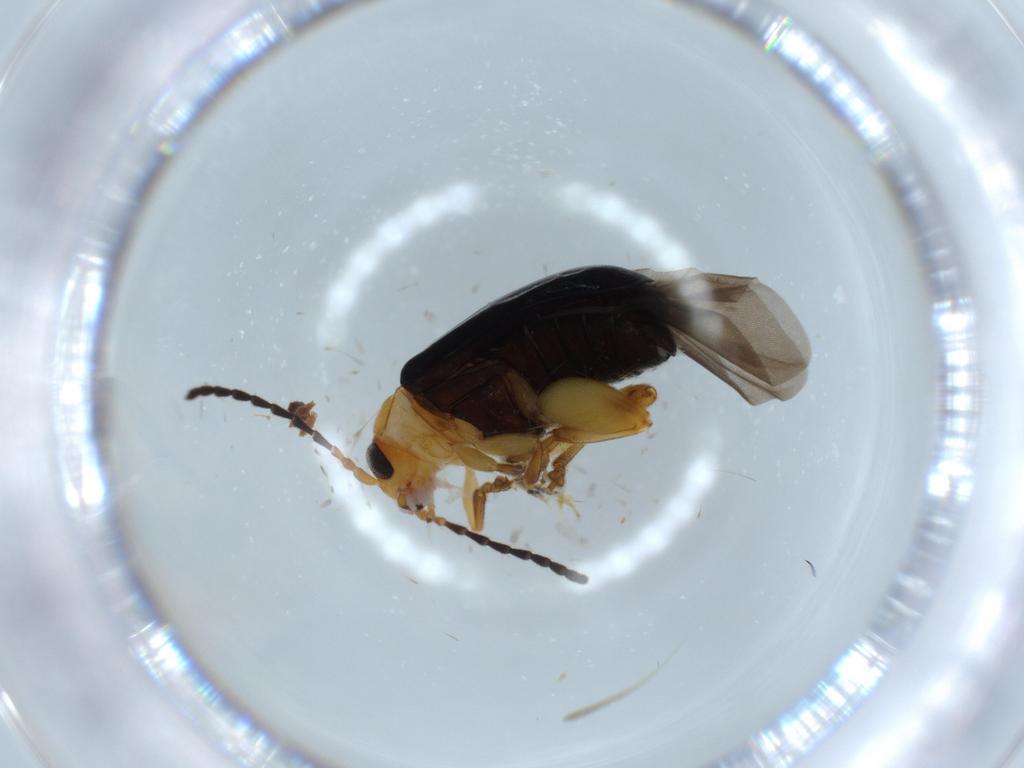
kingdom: Animalia
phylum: Arthropoda
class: Insecta
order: Coleoptera
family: Chrysomelidae
